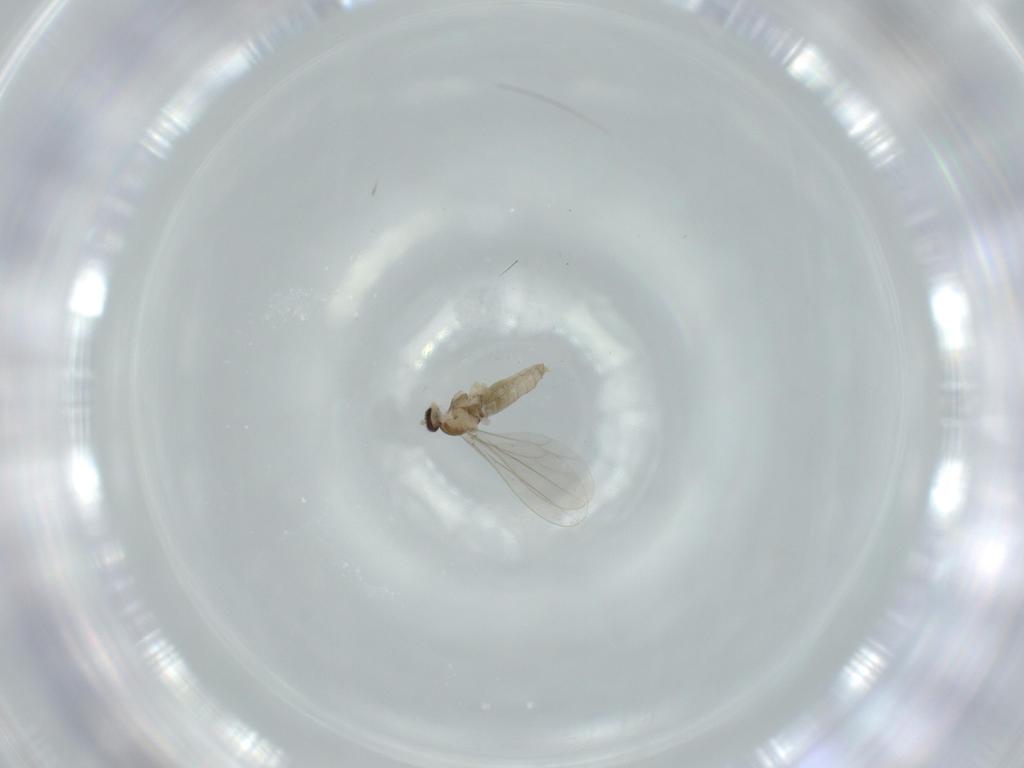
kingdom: Animalia
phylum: Arthropoda
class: Insecta
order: Diptera
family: Cecidomyiidae
